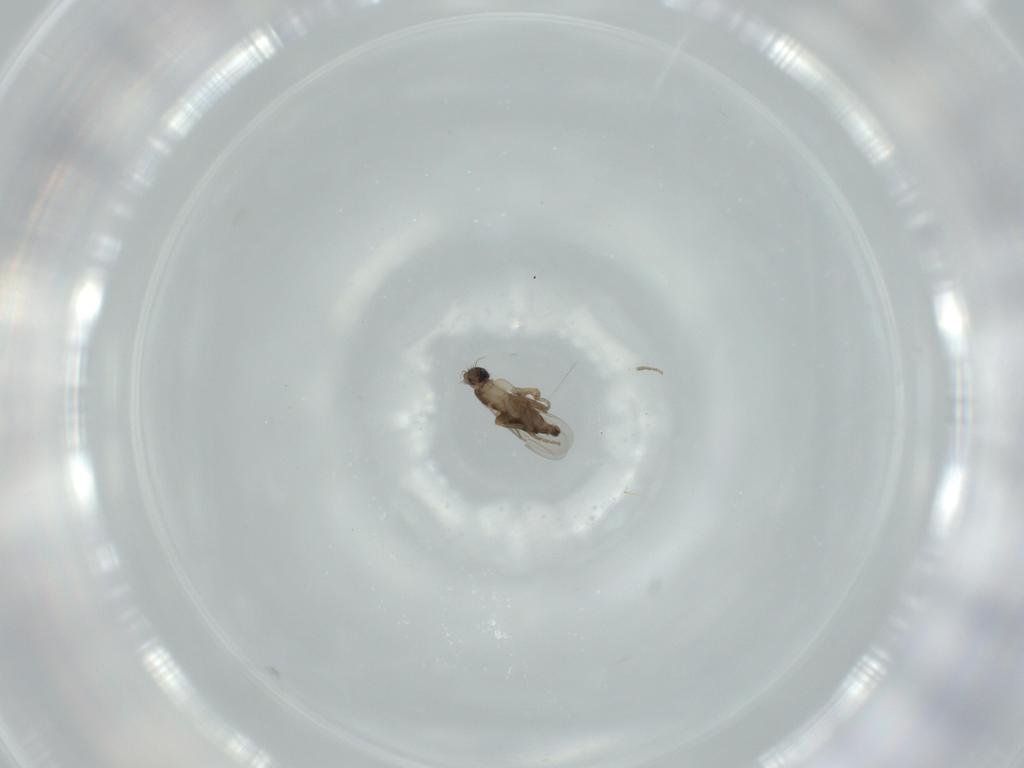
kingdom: Animalia
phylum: Arthropoda
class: Insecta
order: Diptera
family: Phoridae
